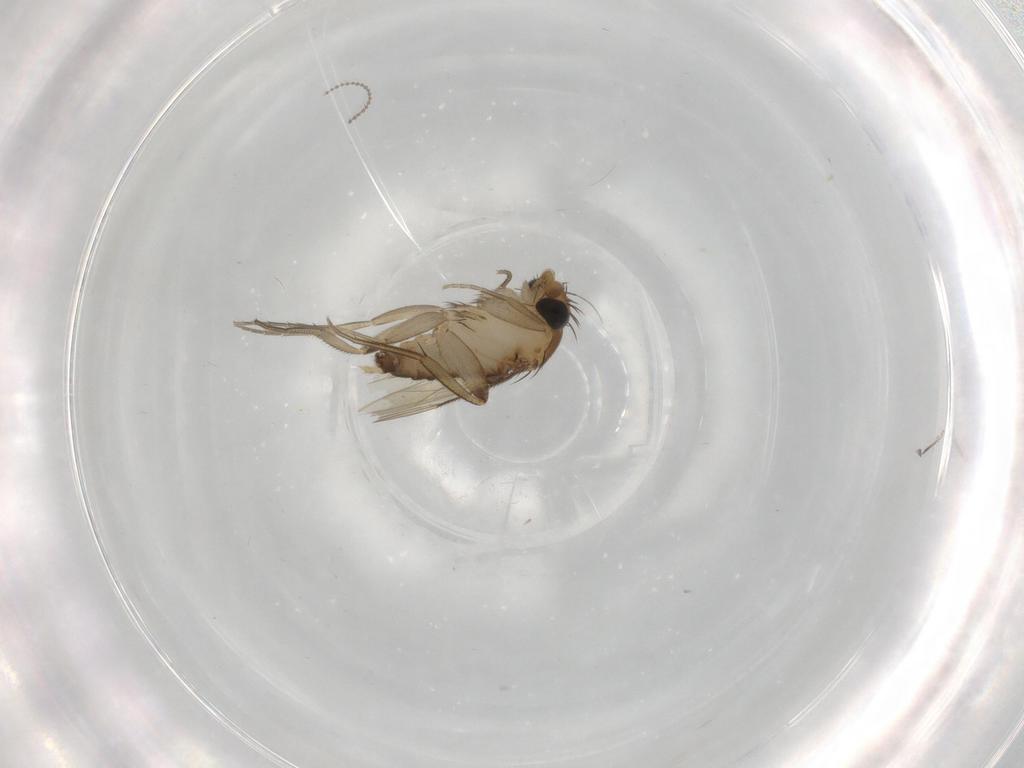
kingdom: Animalia
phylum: Arthropoda
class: Insecta
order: Diptera
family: Phoridae
